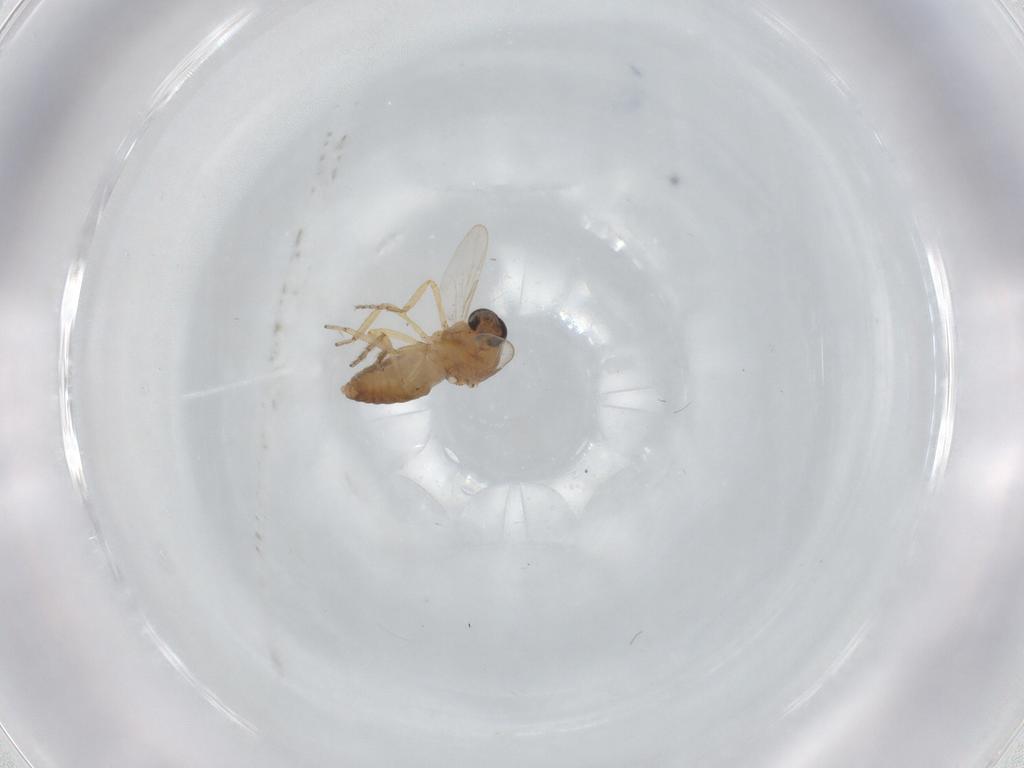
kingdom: Animalia
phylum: Arthropoda
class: Insecta
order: Diptera
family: Ceratopogonidae
